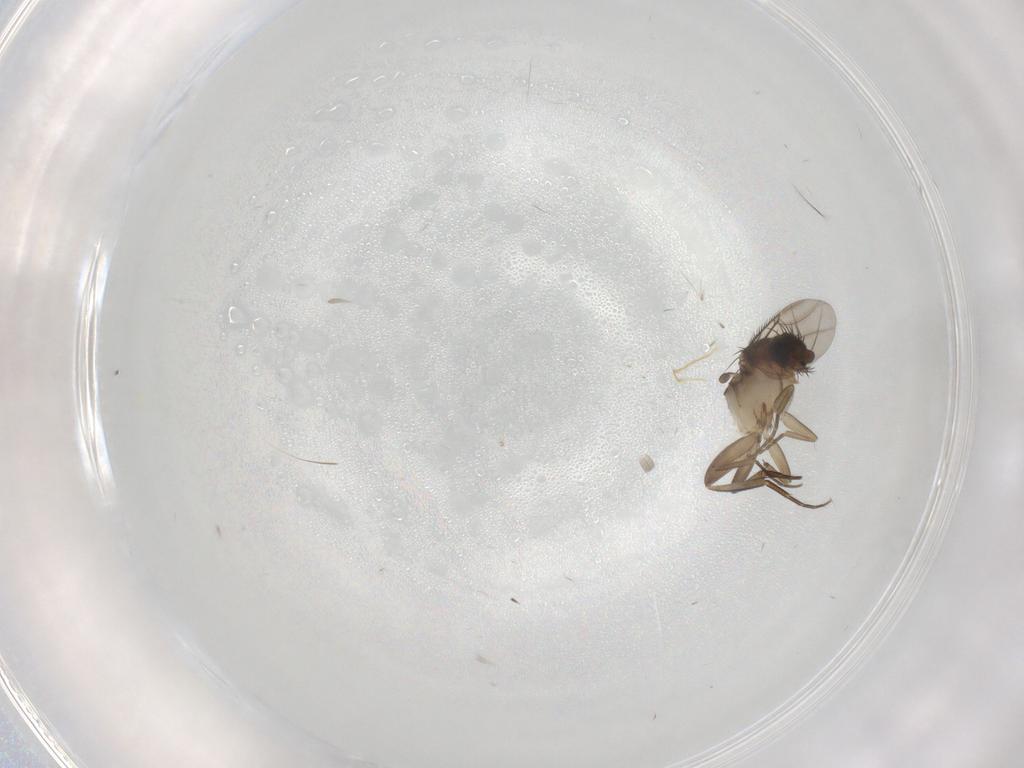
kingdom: Animalia
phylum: Arthropoda
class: Insecta
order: Diptera
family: Phoridae
